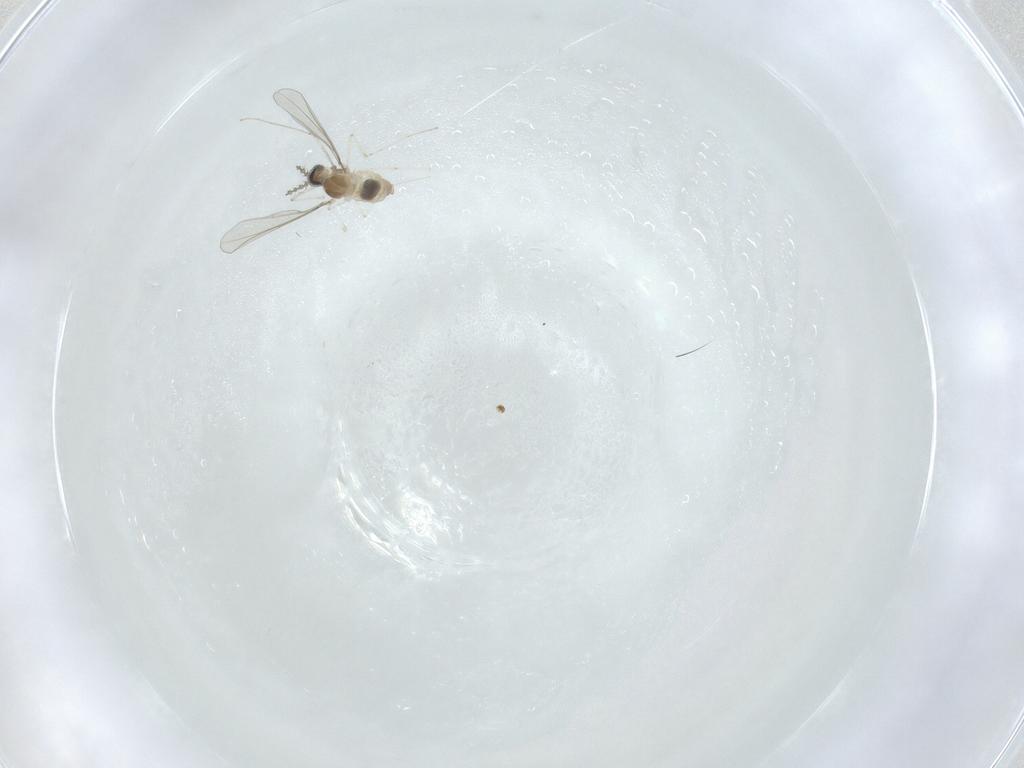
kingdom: Animalia
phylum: Arthropoda
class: Insecta
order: Diptera
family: Cecidomyiidae
